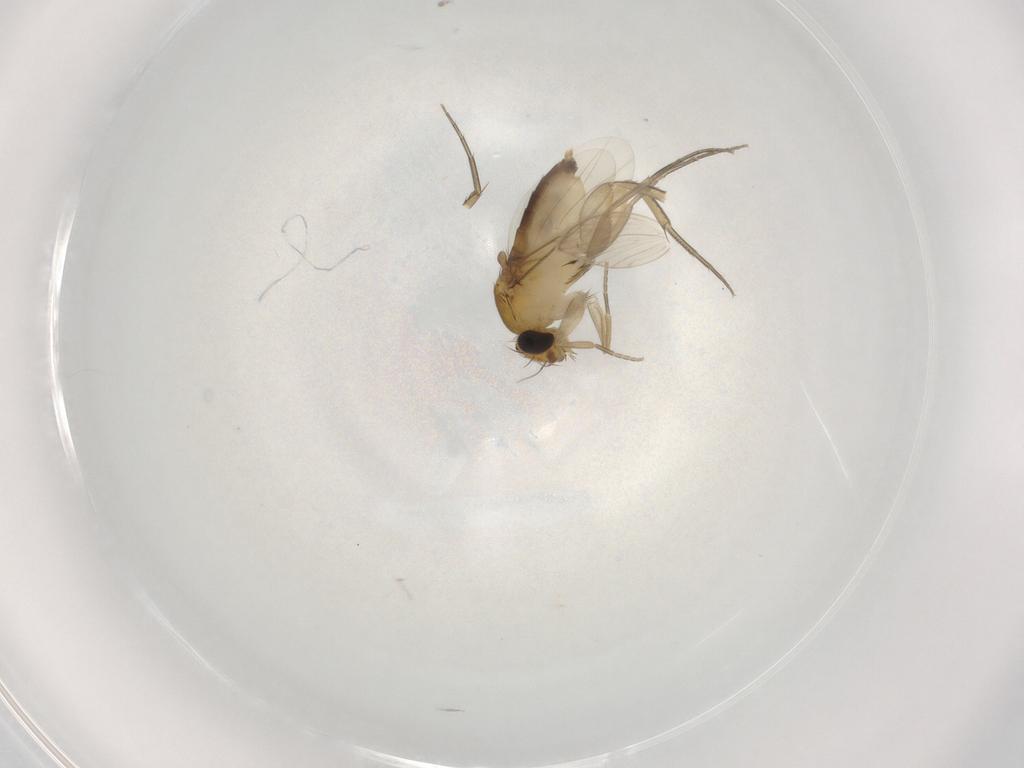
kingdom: Animalia
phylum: Arthropoda
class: Insecta
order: Diptera
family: Phoridae
